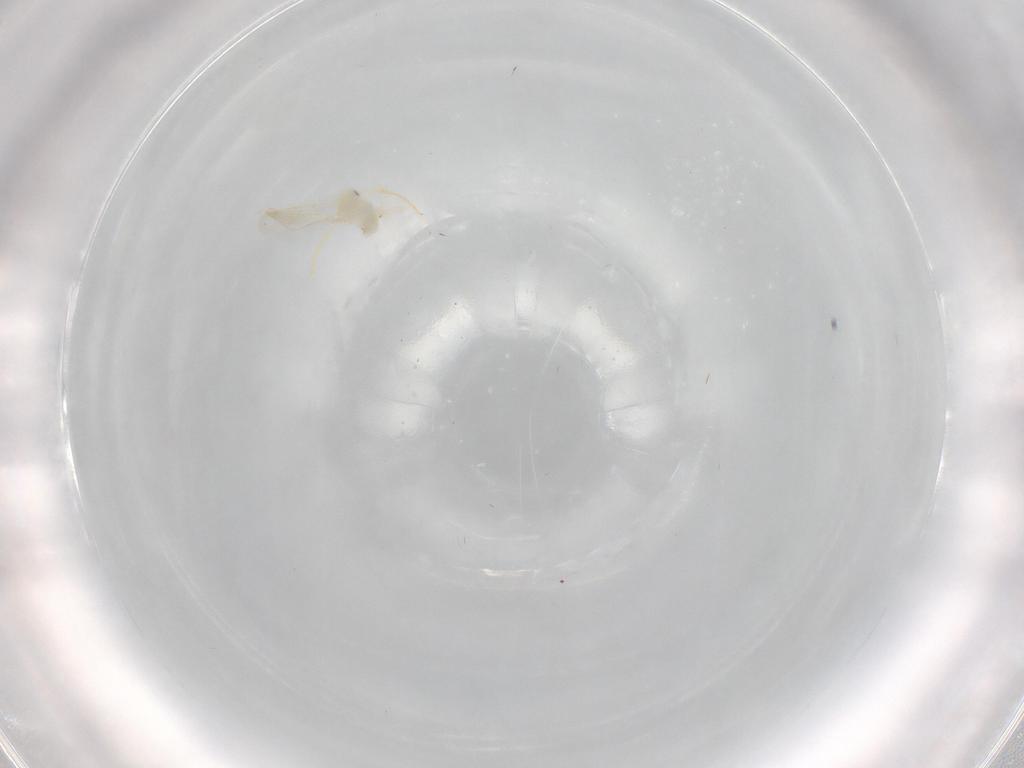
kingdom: Animalia
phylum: Arthropoda
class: Insecta
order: Hemiptera
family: Aleyrodidae
